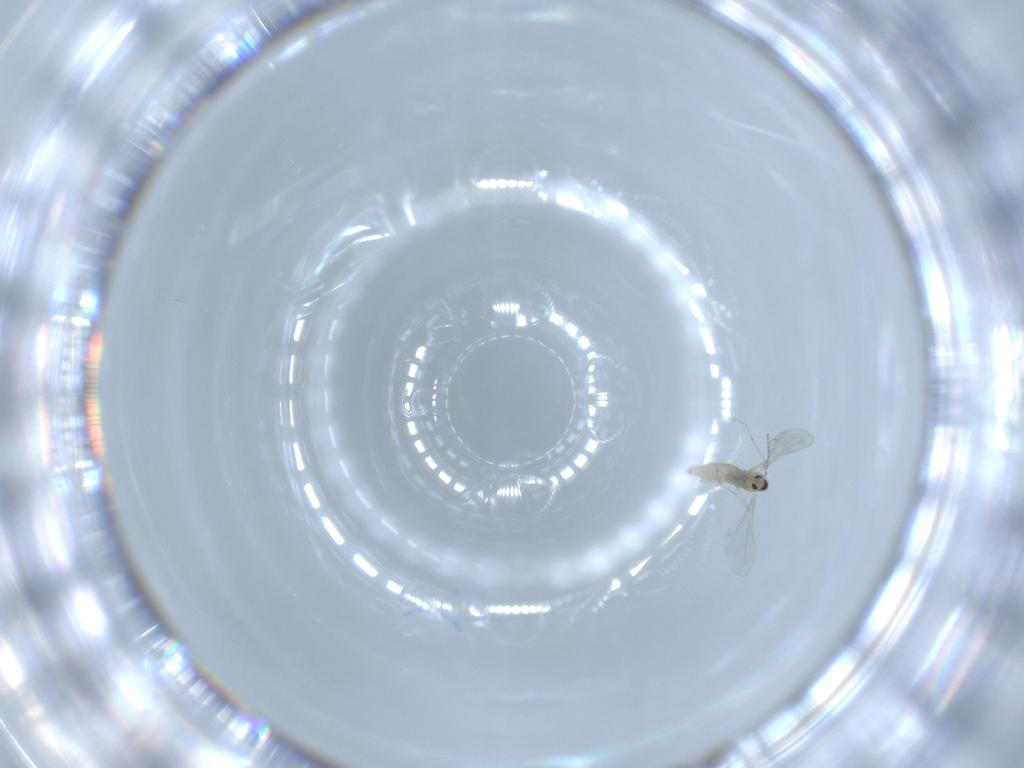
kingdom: Animalia
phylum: Arthropoda
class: Insecta
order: Diptera
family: Cecidomyiidae
